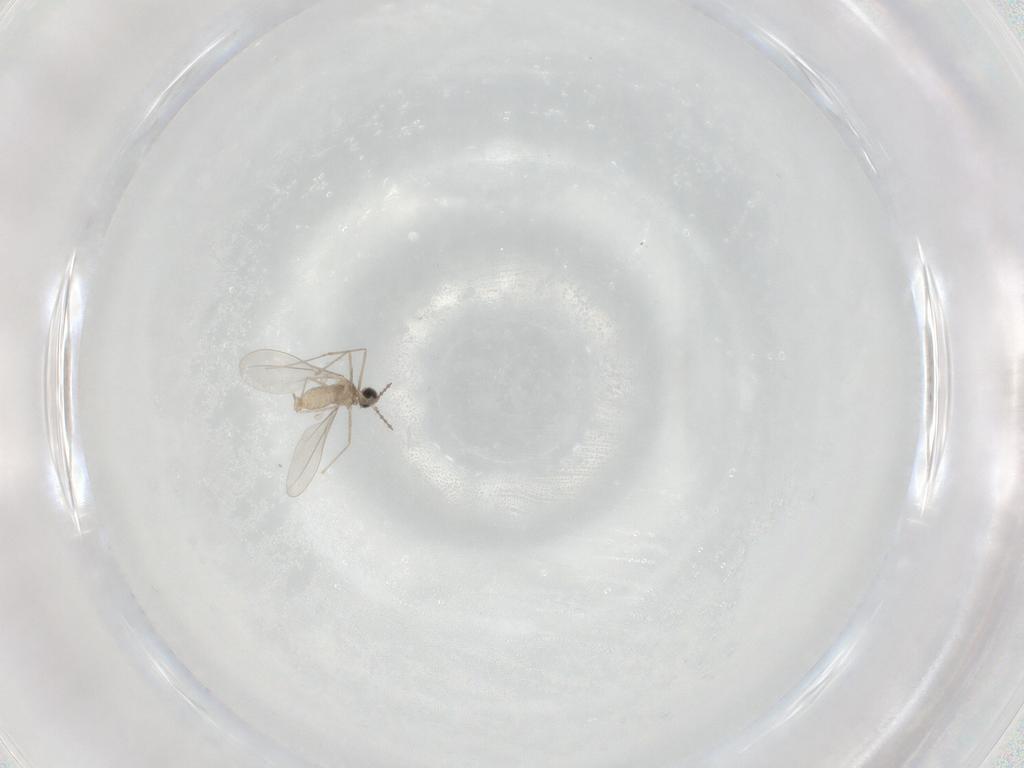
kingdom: Animalia
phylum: Arthropoda
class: Insecta
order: Diptera
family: Cecidomyiidae
